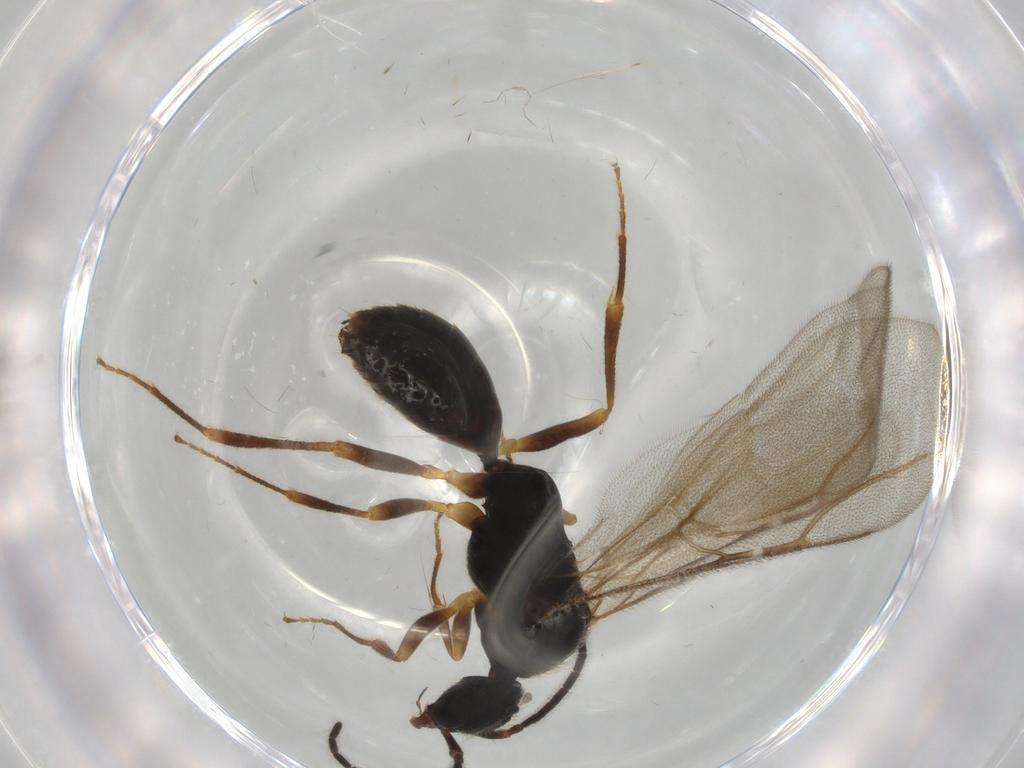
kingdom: Animalia
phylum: Arthropoda
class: Insecta
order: Hymenoptera
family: Bethylidae
